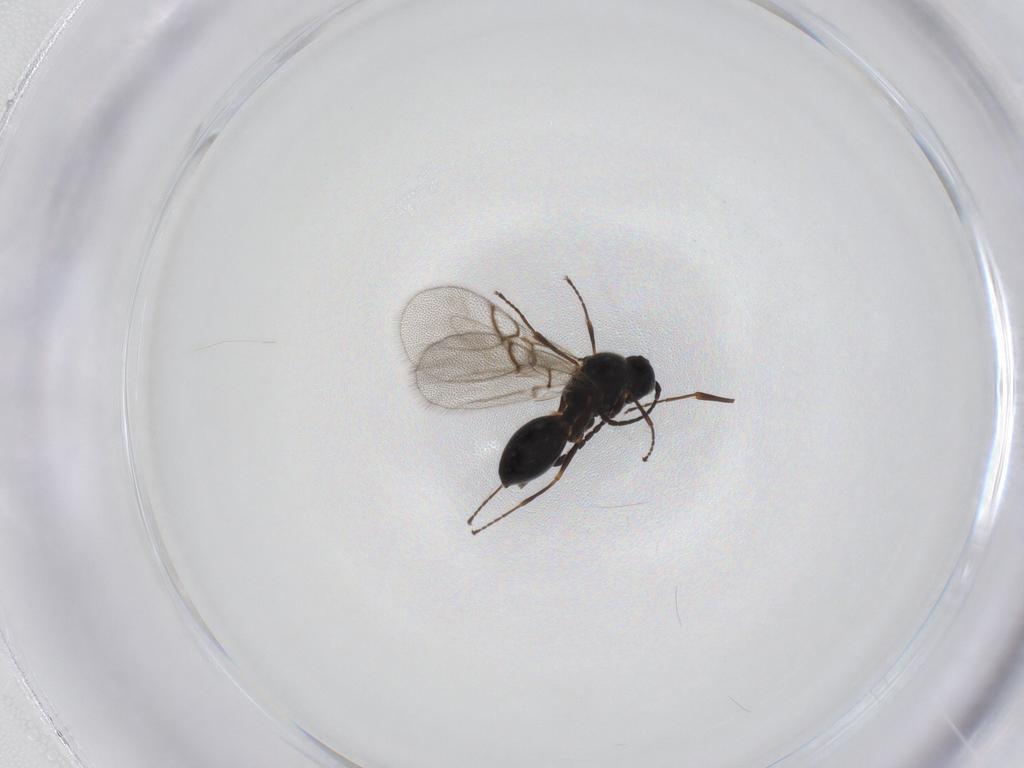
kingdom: Animalia
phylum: Arthropoda
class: Insecta
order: Hymenoptera
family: Figitidae
